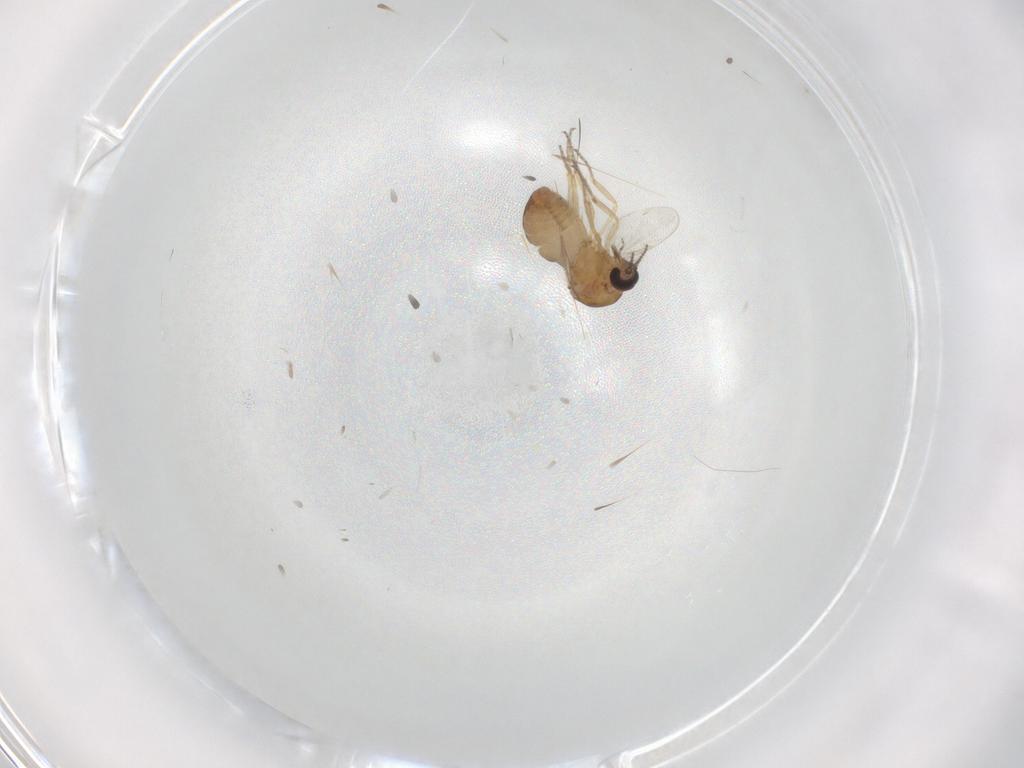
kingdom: Animalia
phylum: Arthropoda
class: Insecta
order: Diptera
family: Ceratopogonidae
